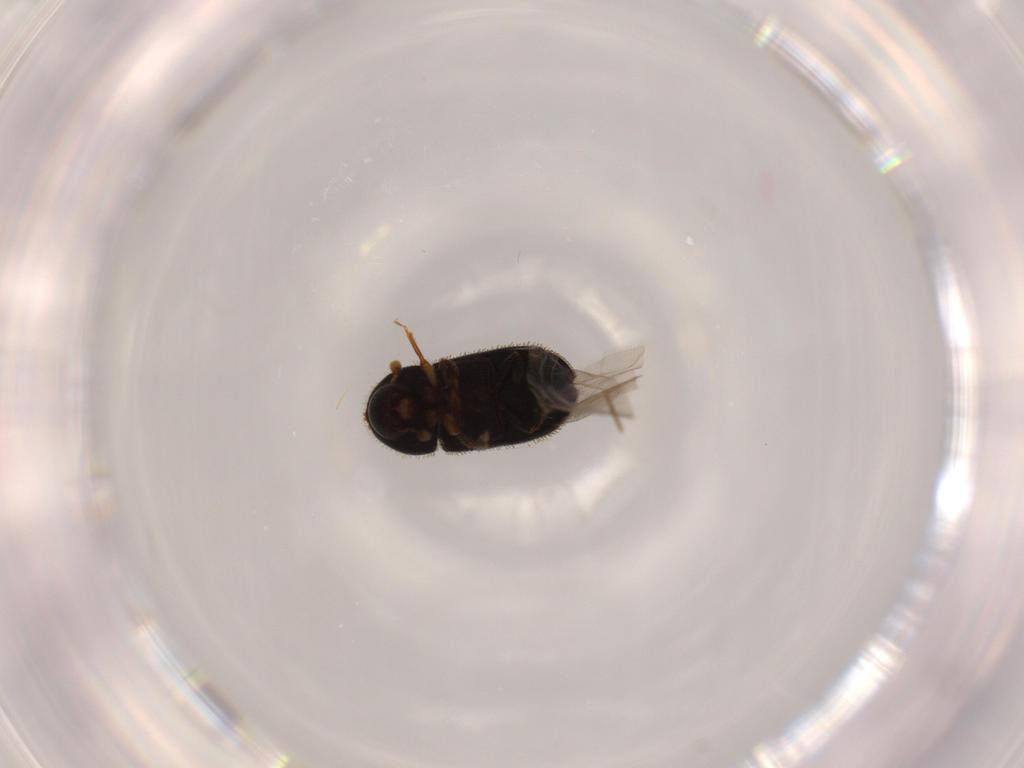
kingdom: Animalia
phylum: Arthropoda
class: Insecta
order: Coleoptera
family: Coccinellidae
